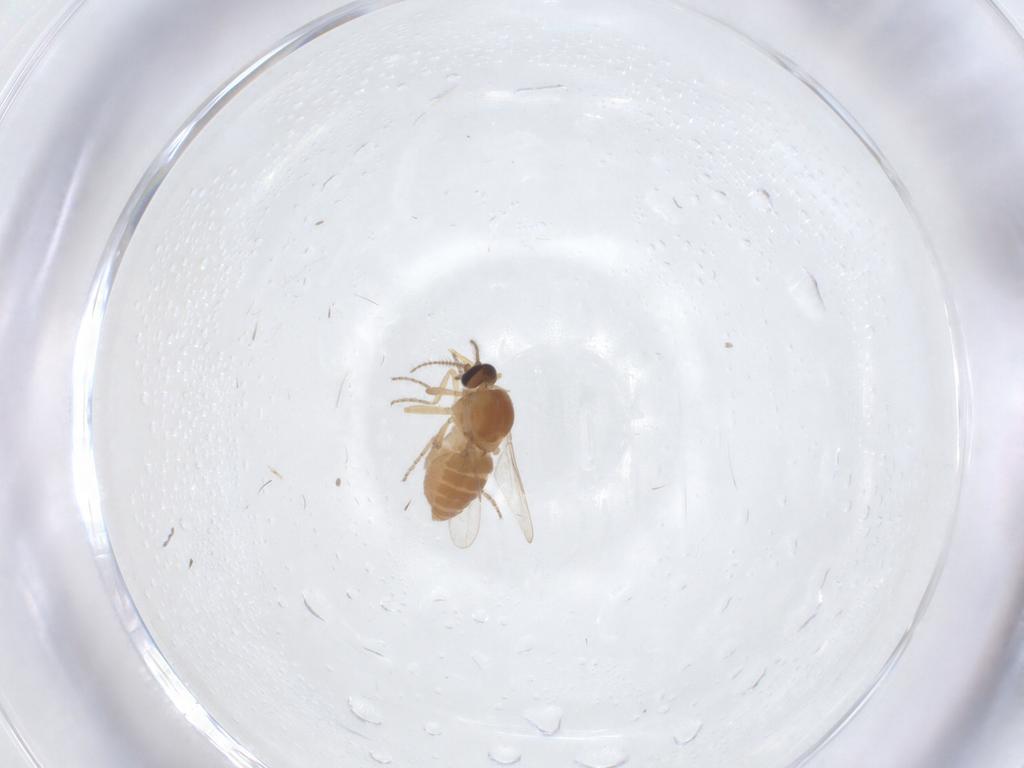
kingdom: Animalia
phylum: Arthropoda
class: Insecta
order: Diptera
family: Ceratopogonidae
